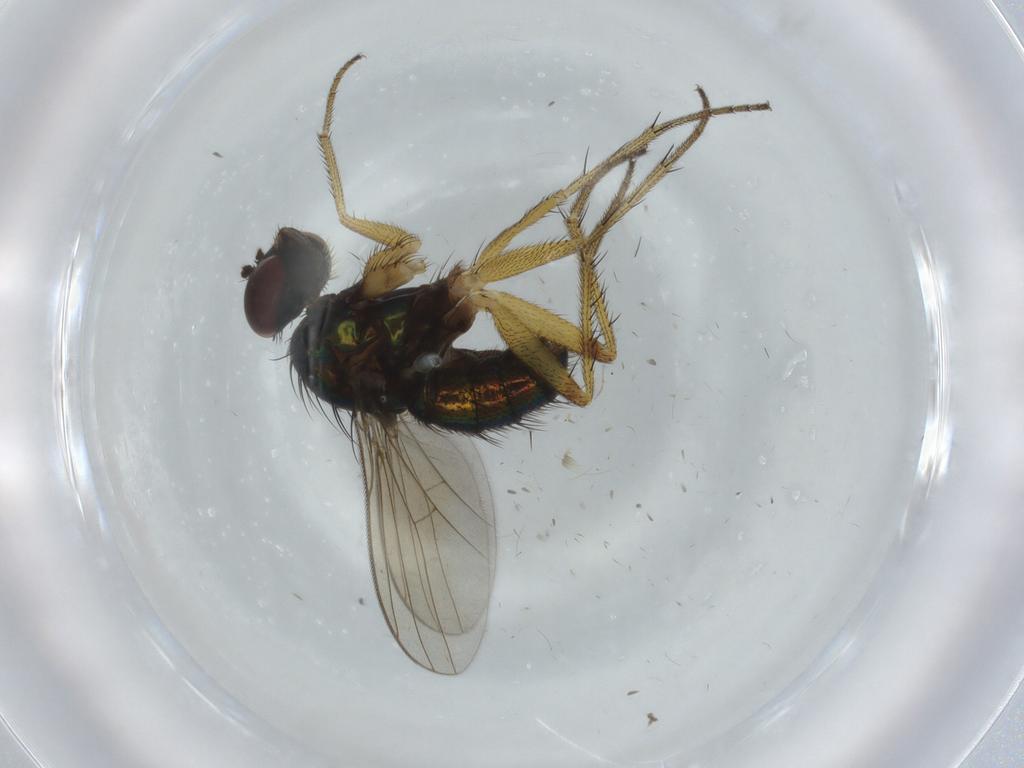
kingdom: Animalia
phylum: Arthropoda
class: Insecta
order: Diptera
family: Dolichopodidae
